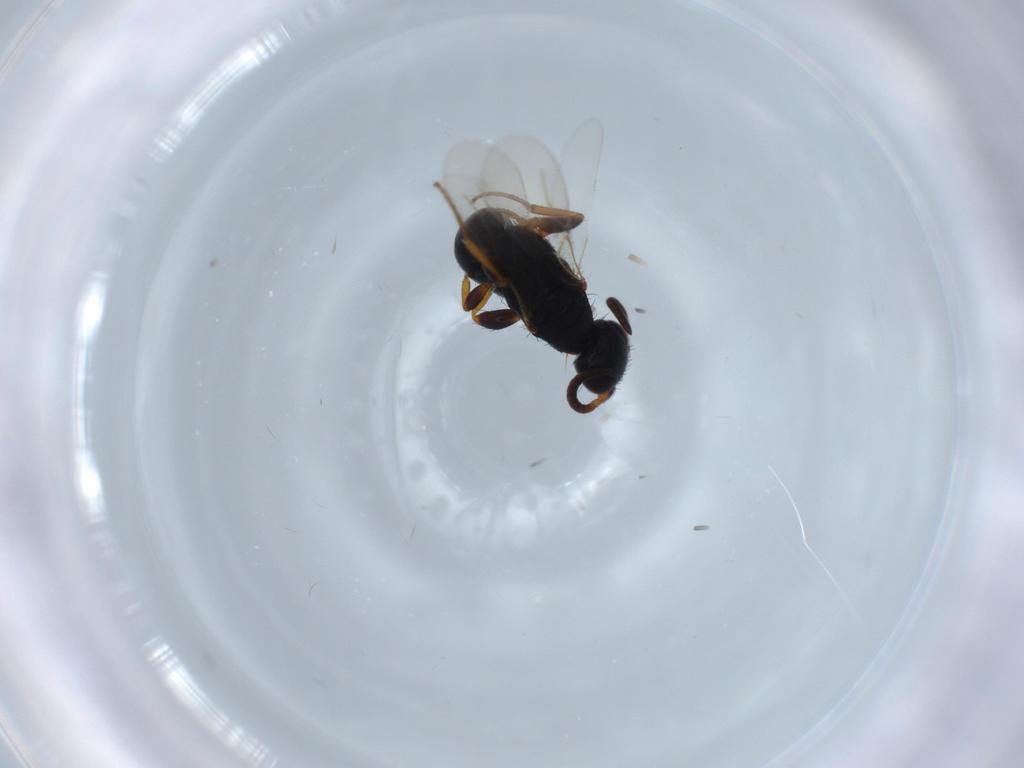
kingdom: Animalia
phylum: Arthropoda
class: Insecta
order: Hymenoptera
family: Bethylidae
